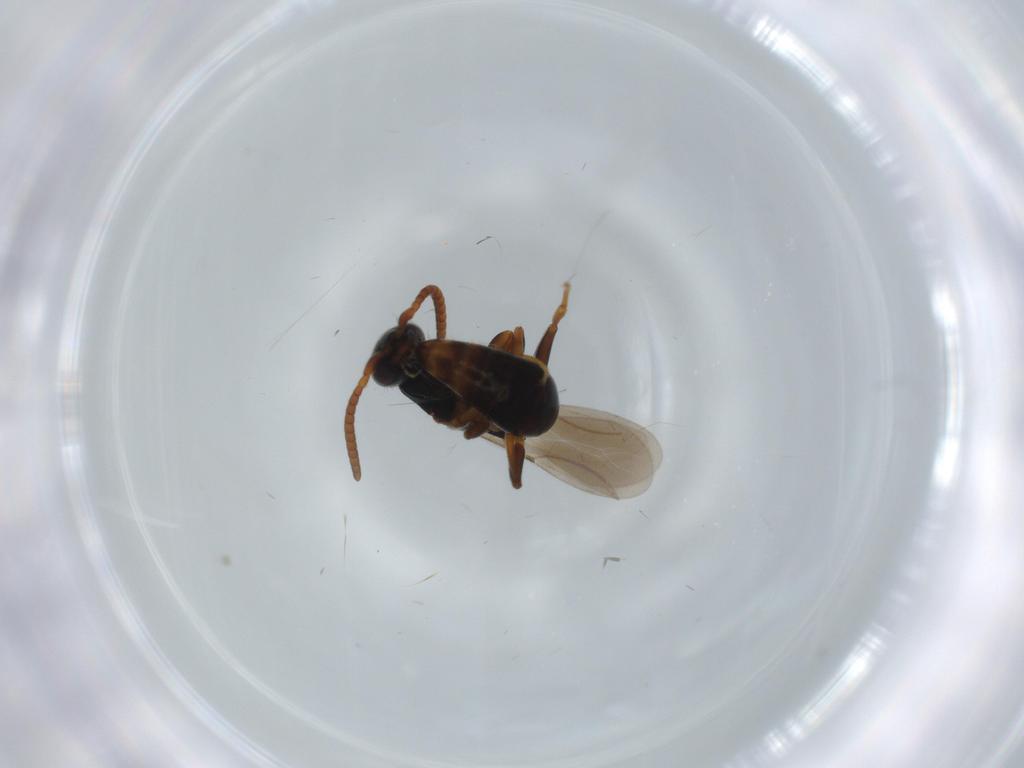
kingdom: Animalia
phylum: Arthropoda
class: Insecta
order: Hymenoptera
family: Bethylidae
